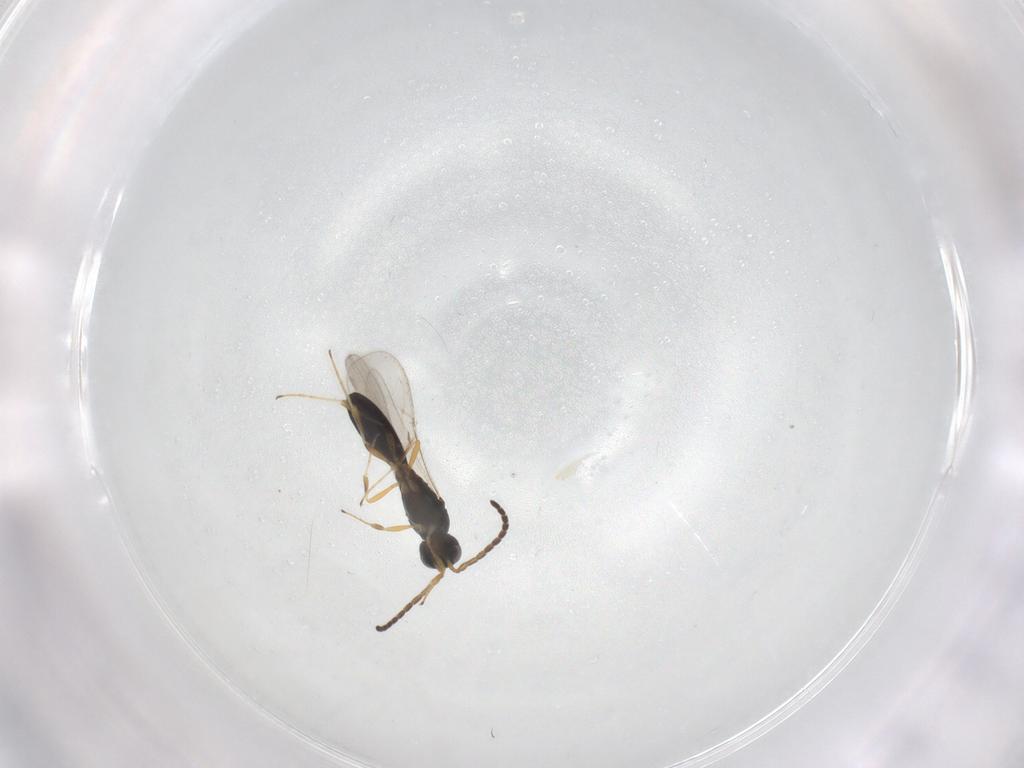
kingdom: Animalia
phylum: Arthropoda
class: Insecta
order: Hymenoptera
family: Scelionidae
